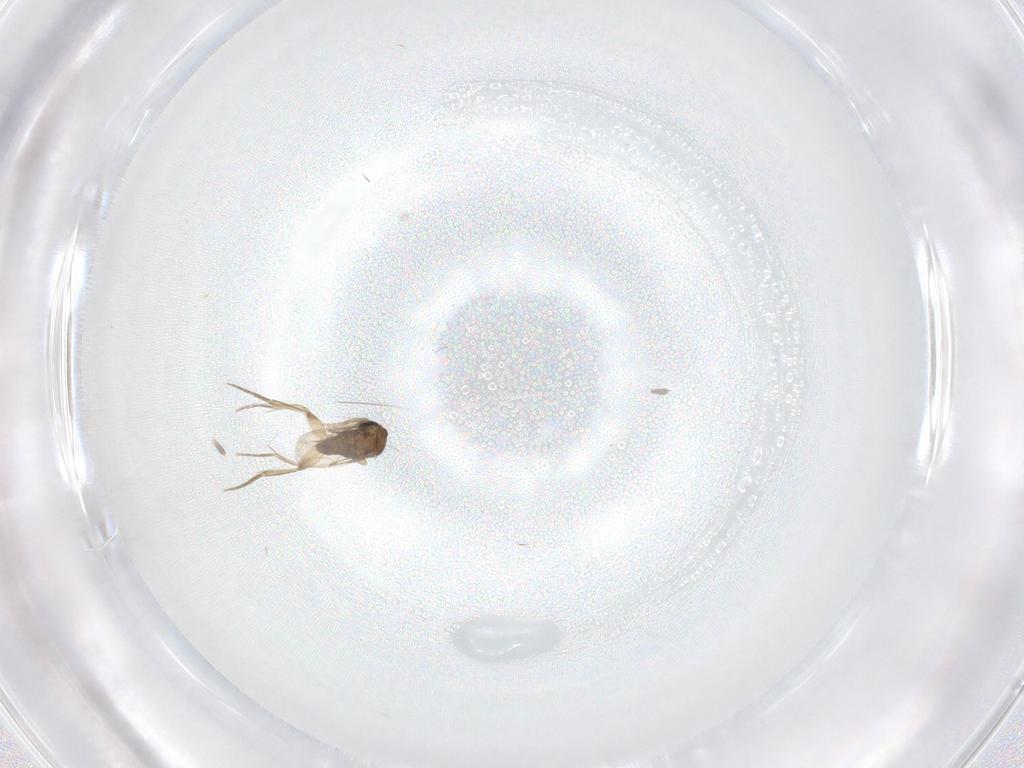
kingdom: Animalia
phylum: Arthropoda
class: Insecta
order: Diptera
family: Phoridae
